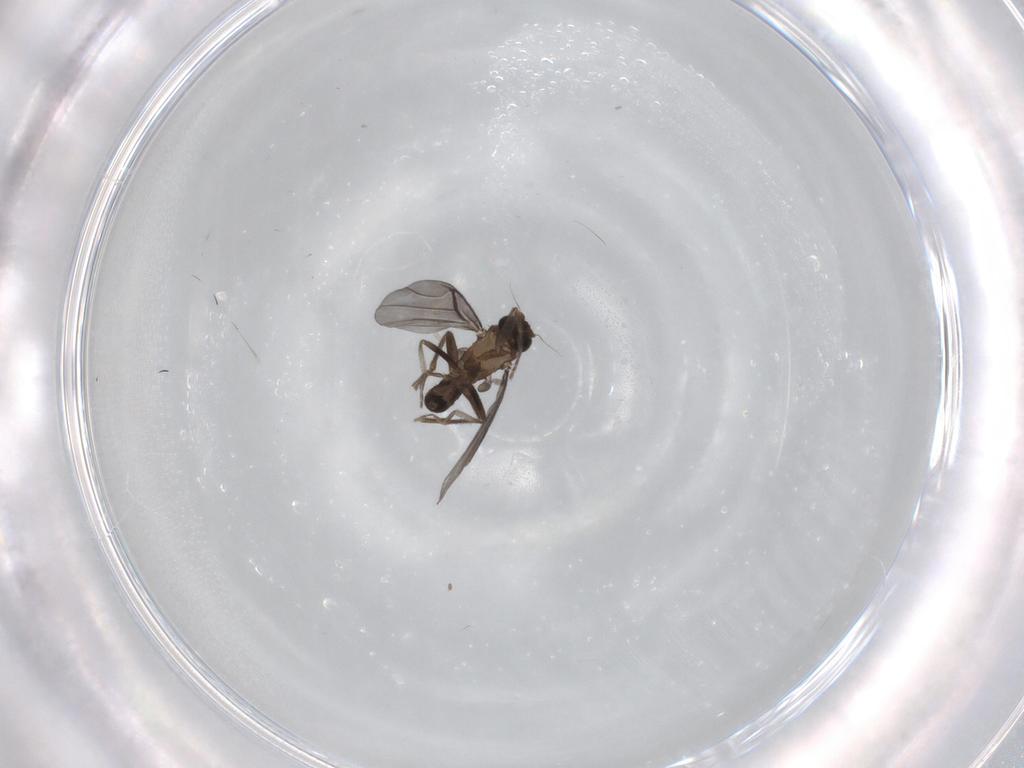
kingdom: Animalia
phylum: Arthropoda
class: Insecta
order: Diptera
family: Phoridae
